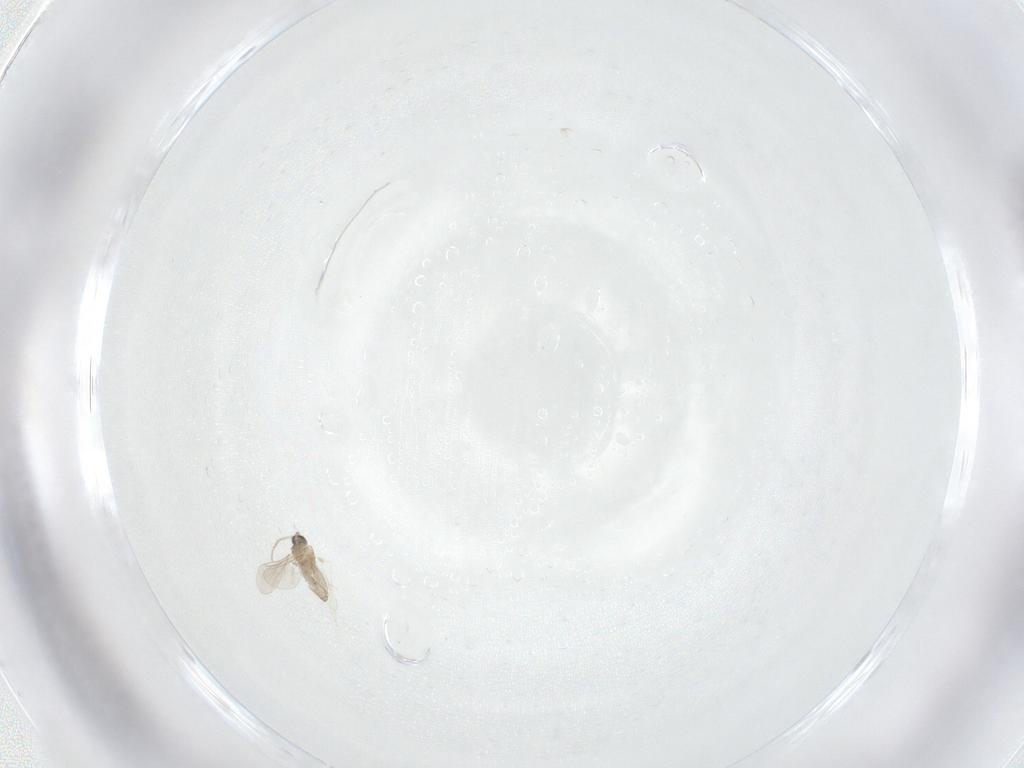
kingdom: Animalia
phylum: Arthropoda
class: Insecta
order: Diptera
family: Cecidomyiidae
